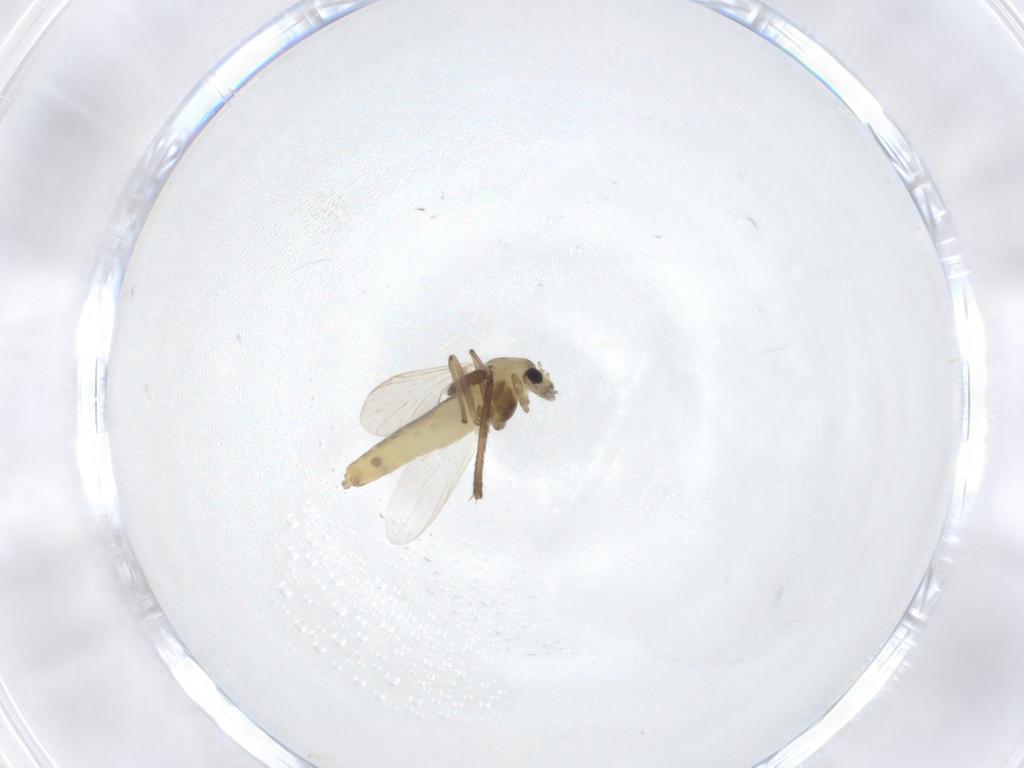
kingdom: Animalia
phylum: Arthropoda
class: Insecta
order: Diptera
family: Chironomidae
